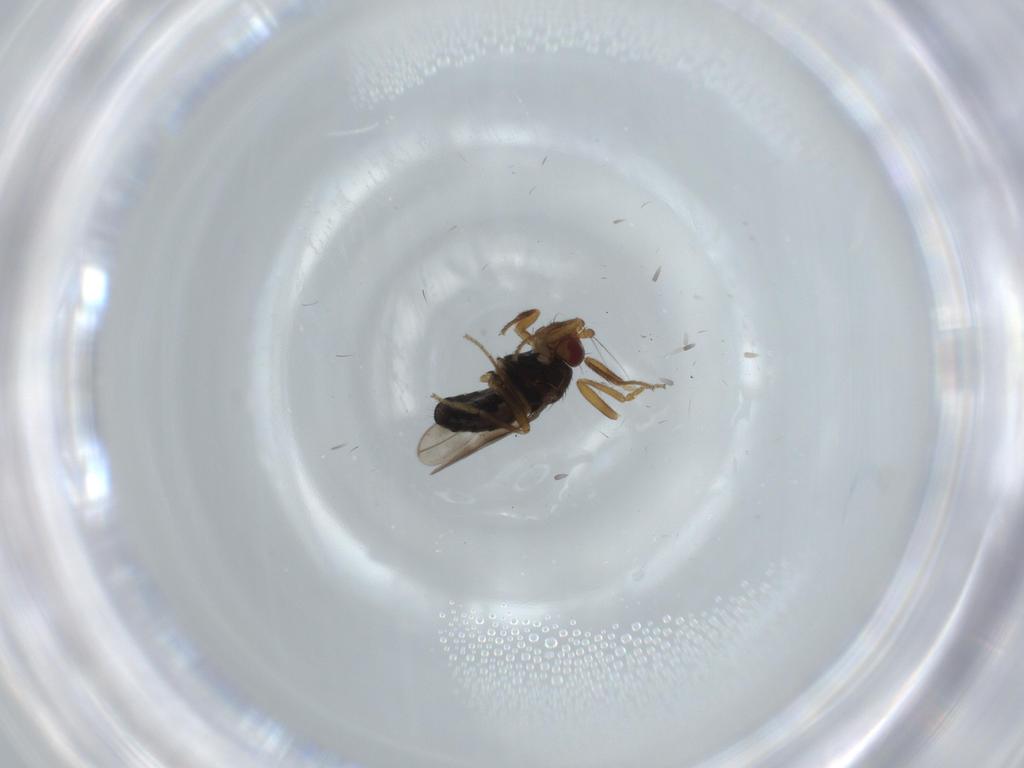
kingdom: Animalia
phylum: Arthropoda
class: Insecta
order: Diptera
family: Sphaeroceridae
